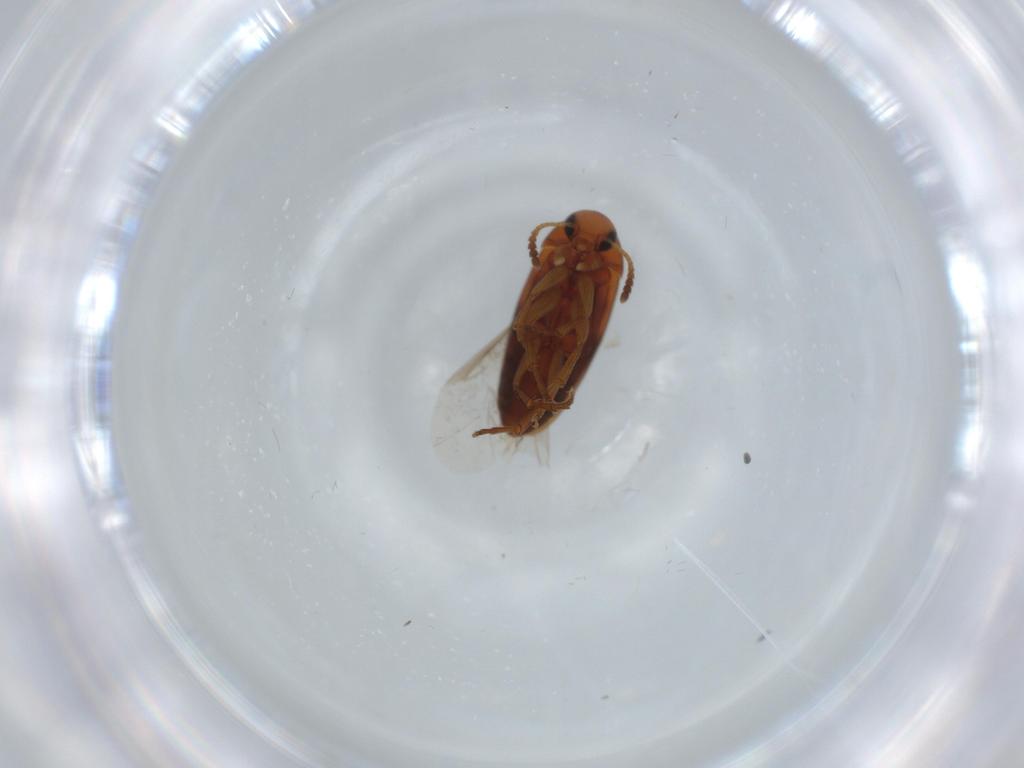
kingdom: Animalia
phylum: Arthropoda
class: Insecta
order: Coleoptera
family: Scraptiidae
